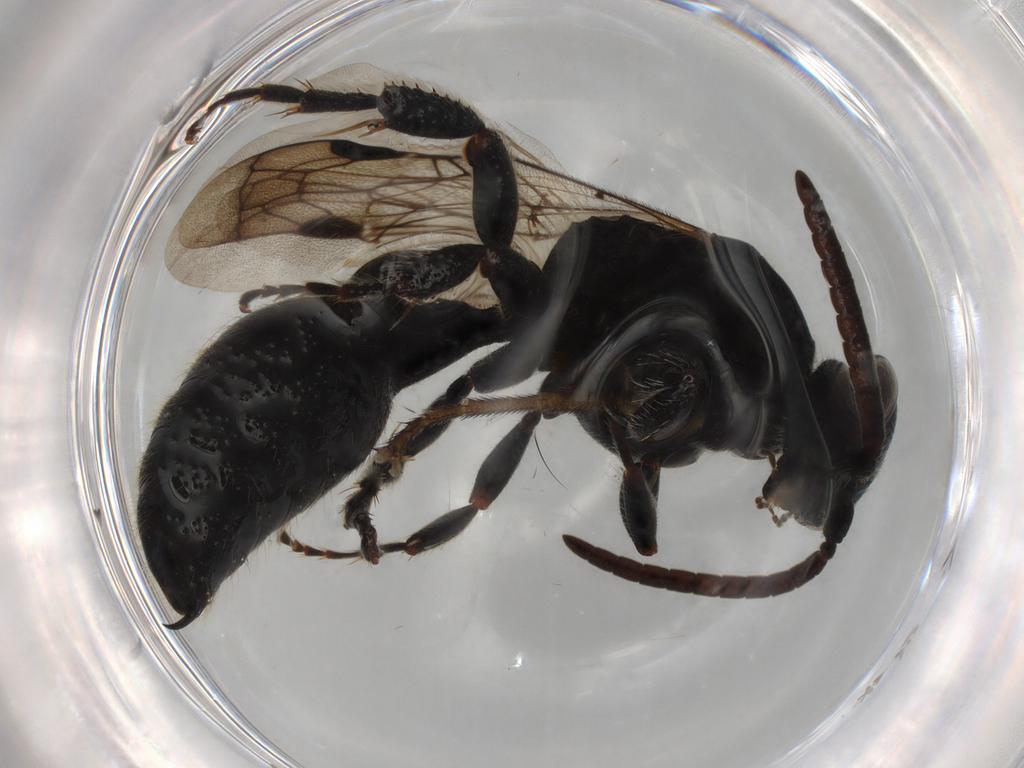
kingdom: Animalia
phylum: Arthropoda
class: Insecta
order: Hymenoptera
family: Tiphiidae
